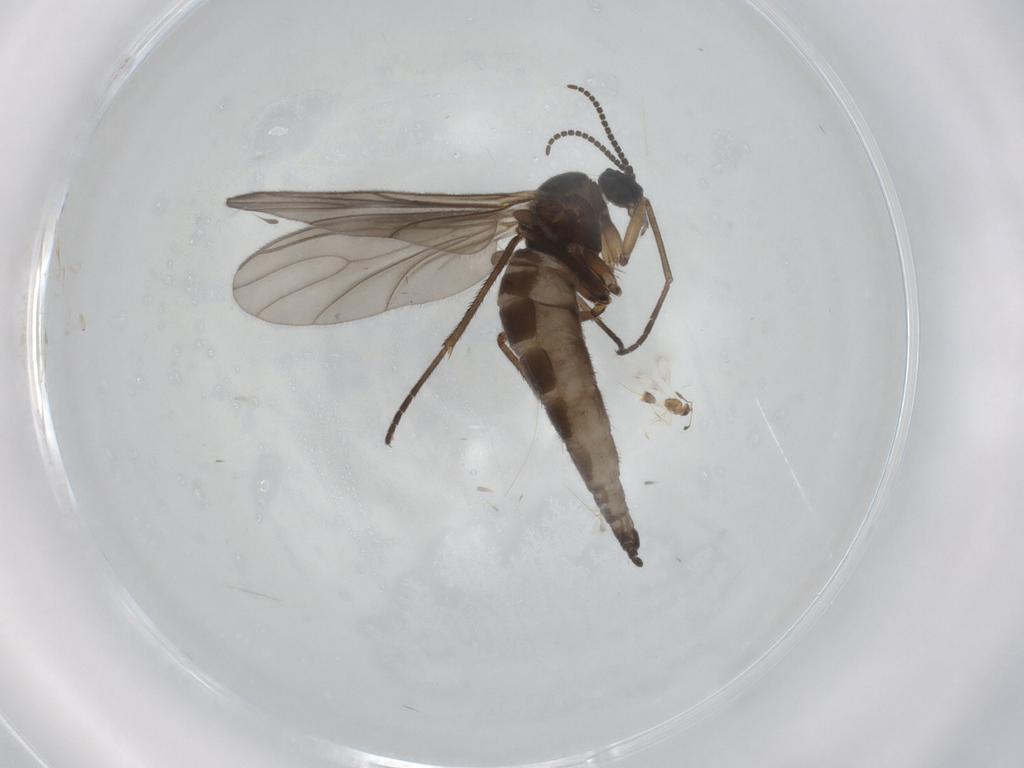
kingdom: Animalia
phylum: Arthropoda
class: Insecta
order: Diptera
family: Sciaridae
